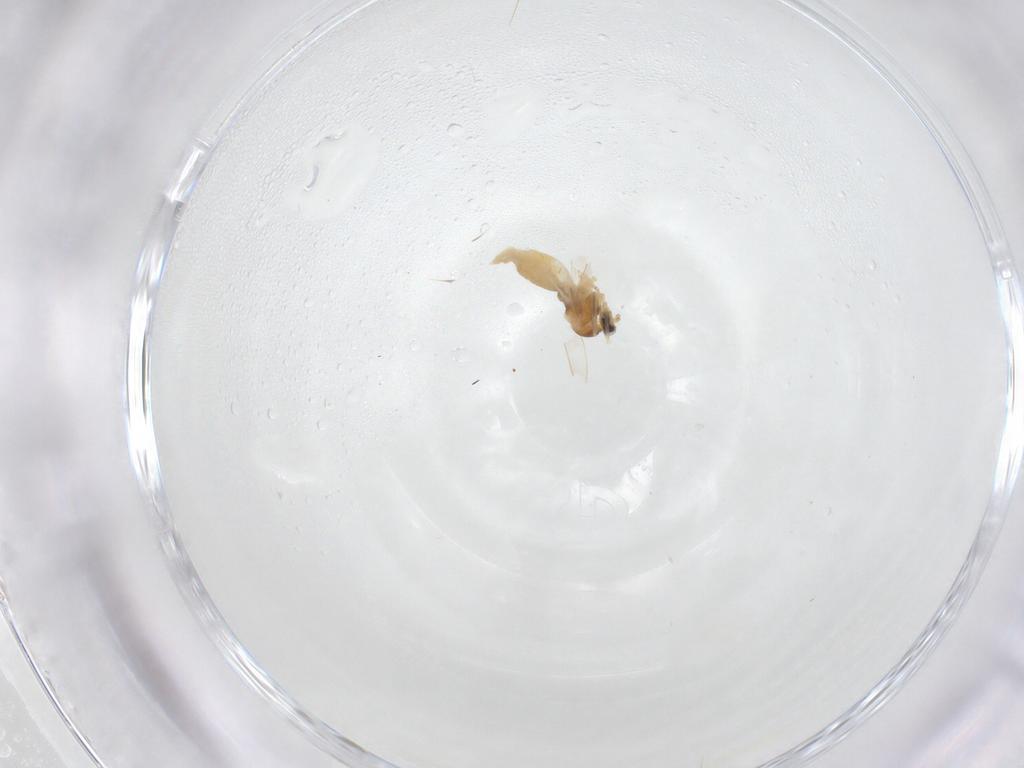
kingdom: Animalia
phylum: Arthropoda
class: Insecta
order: Diptera
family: Cecidomyiidae
